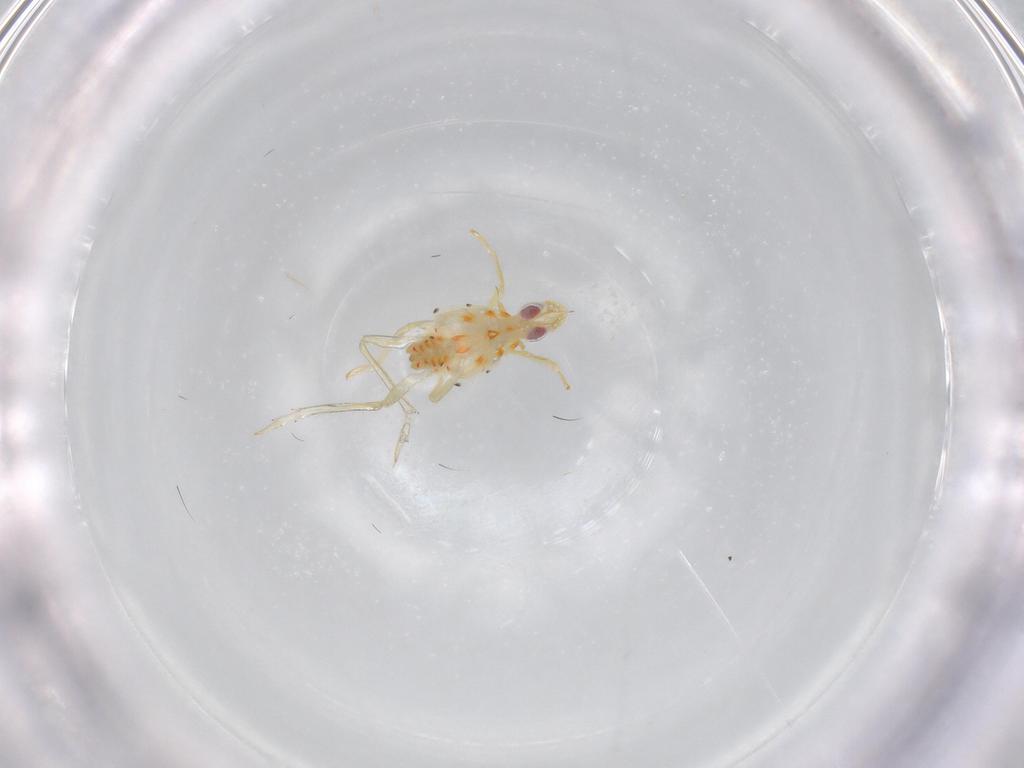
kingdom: Animalia
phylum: Arthropoda
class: Insecta
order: Hemiptera
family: Tropiduchidae
